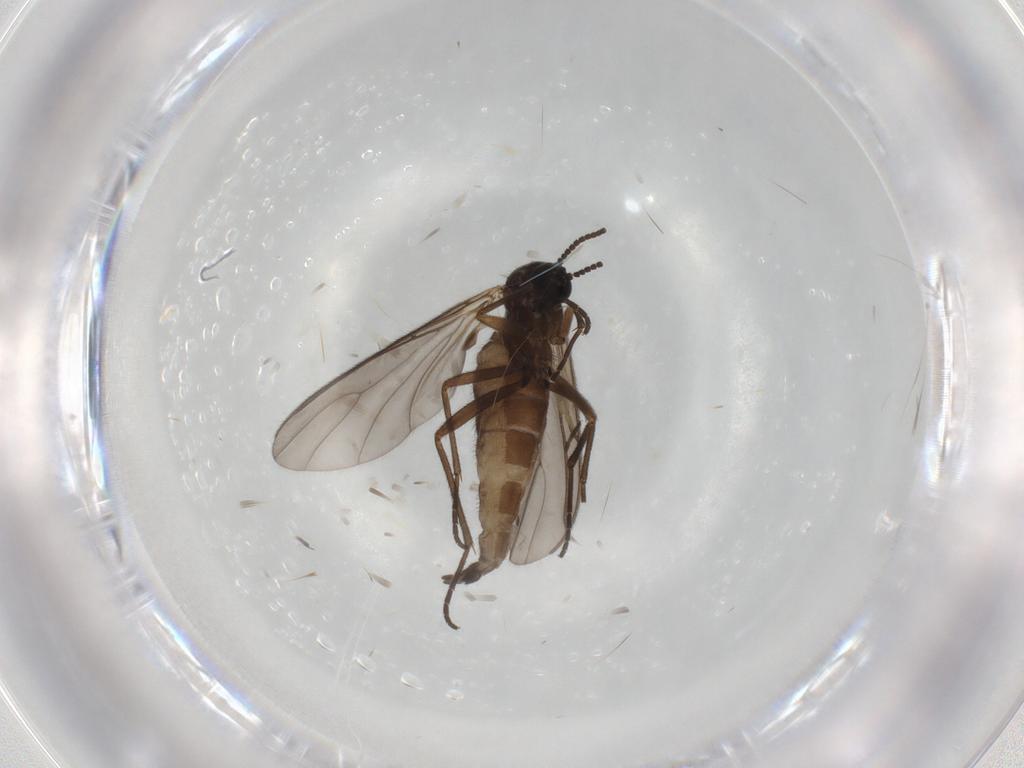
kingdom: Animalia
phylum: Arthropoda
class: Insecta
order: Diptera
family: Sciaridae
